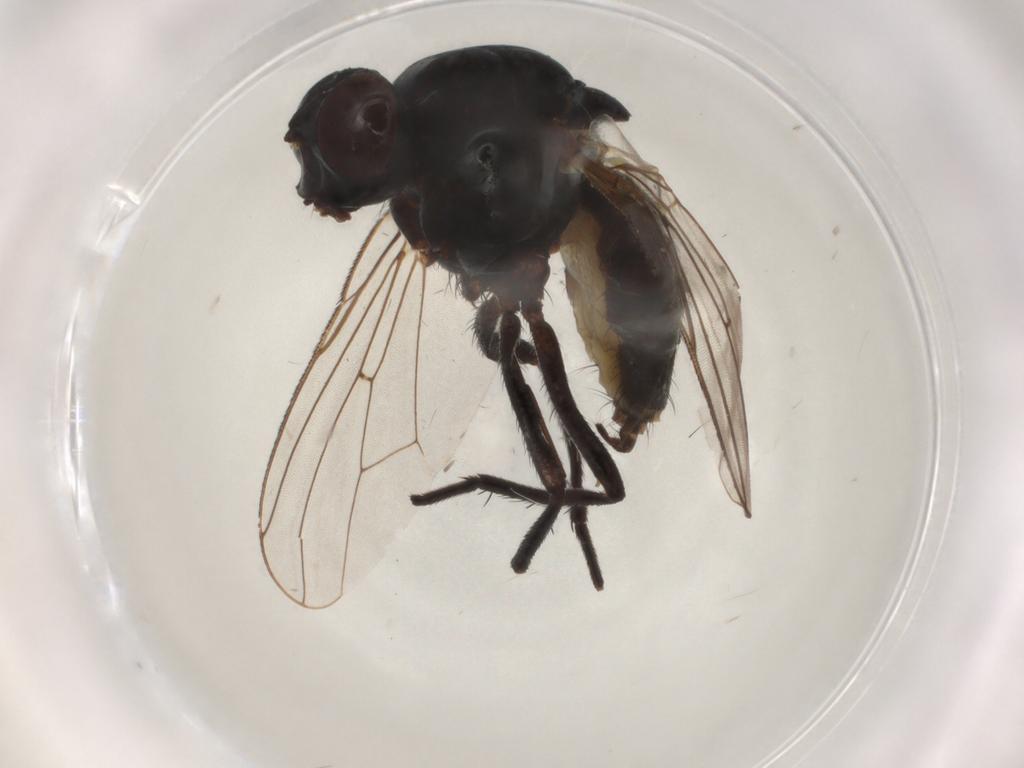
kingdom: Animalia
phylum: Arthropoda
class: Insecta
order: Diptera
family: Anthomyiidae
